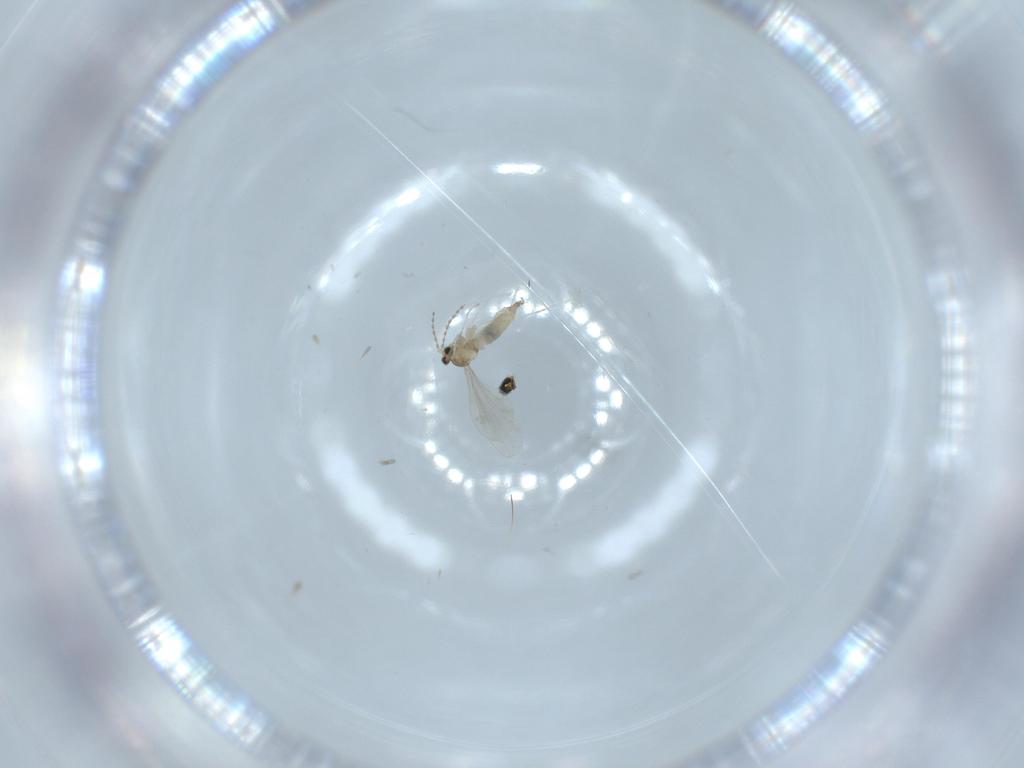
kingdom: Animalia
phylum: Arthropoda
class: Insecta
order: Diptera
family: Cecidomyiidae
